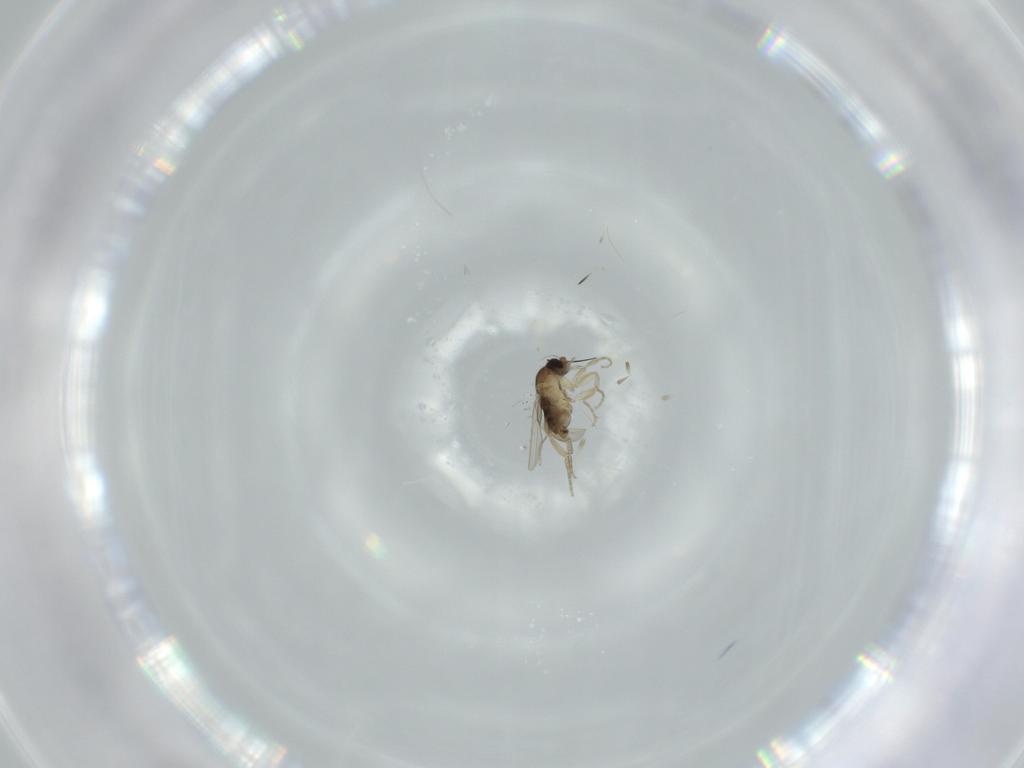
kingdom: Animalia
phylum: Arthropoda
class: Insecta
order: Diptera
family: Phoridae
